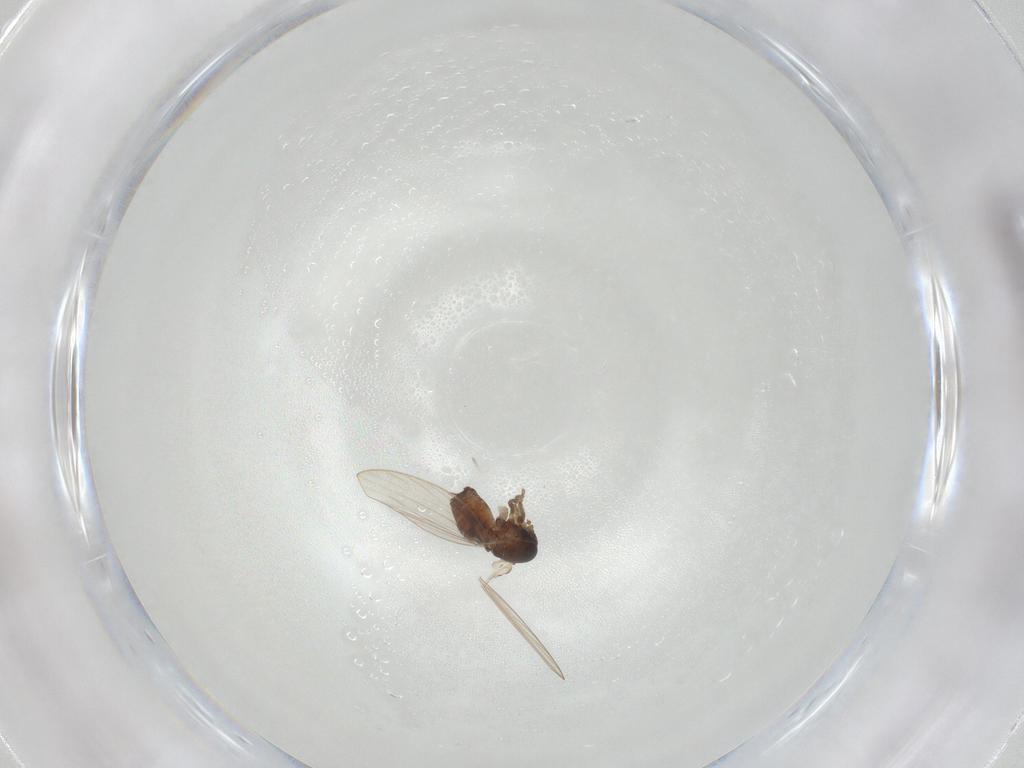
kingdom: Animalia
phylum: Arthropoda
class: Insecta
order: Diptera
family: Psychodidae
